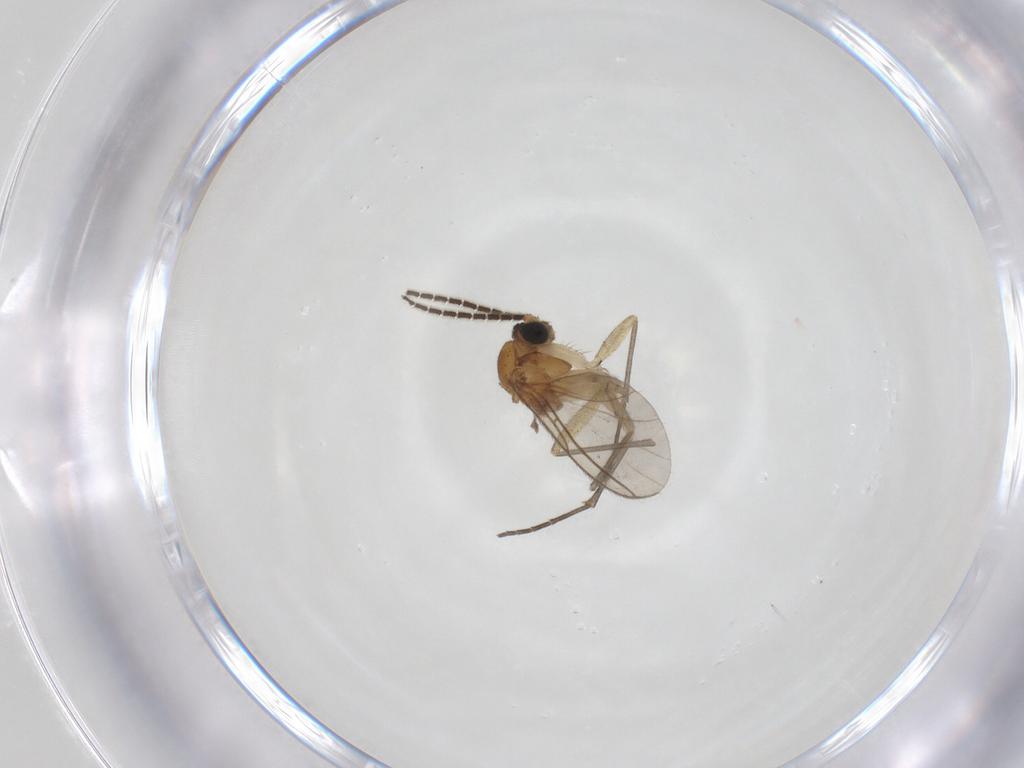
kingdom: Animalia
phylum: Arthropoda
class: Insecta
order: Diptera
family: Sciaridae
